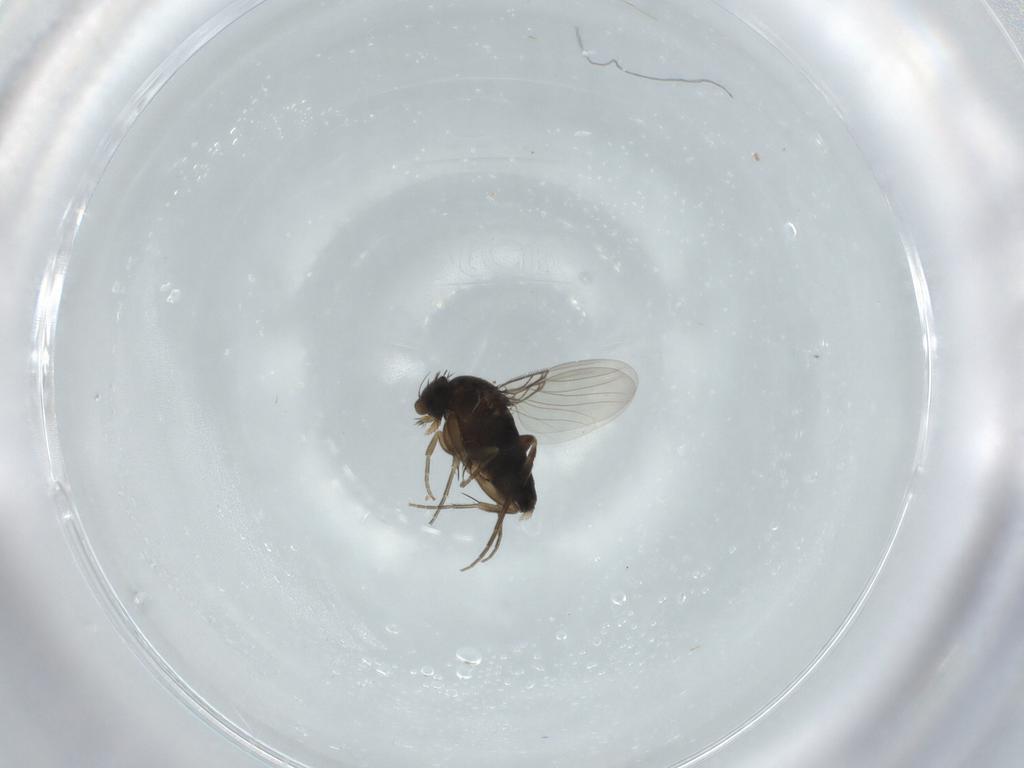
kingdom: Animalia
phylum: Arthropoda
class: Insecta
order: Diptera
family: Phoridae
